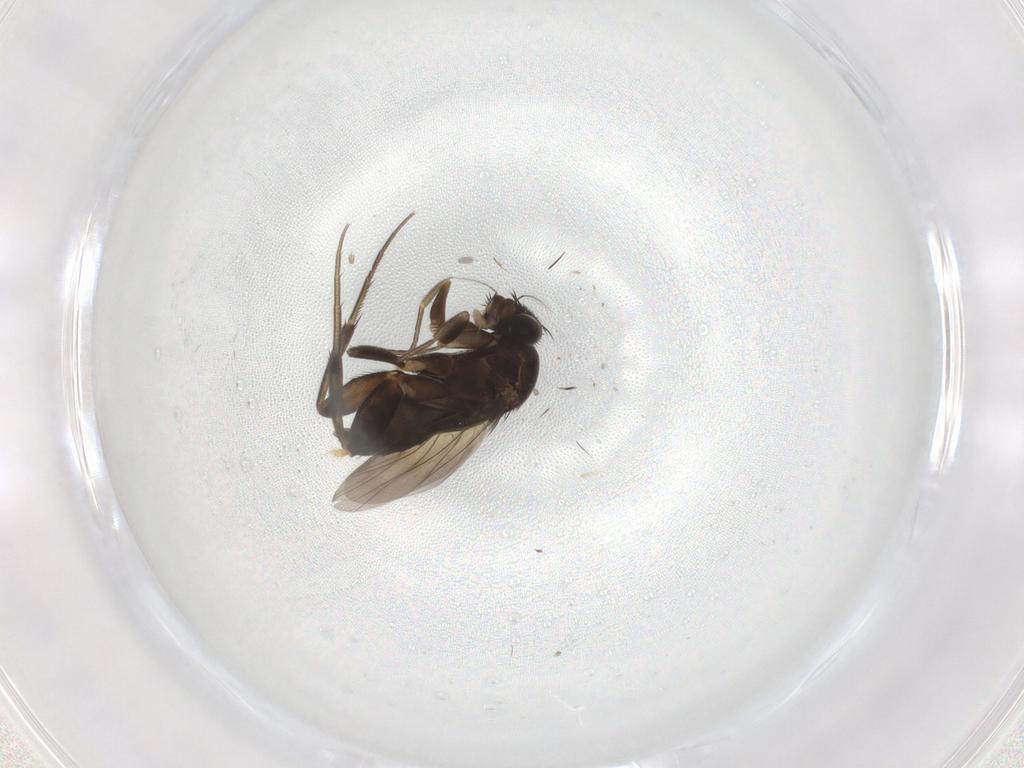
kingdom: Animalia
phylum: Arthropoda
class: Insecta
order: Diptera
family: Phoridae
